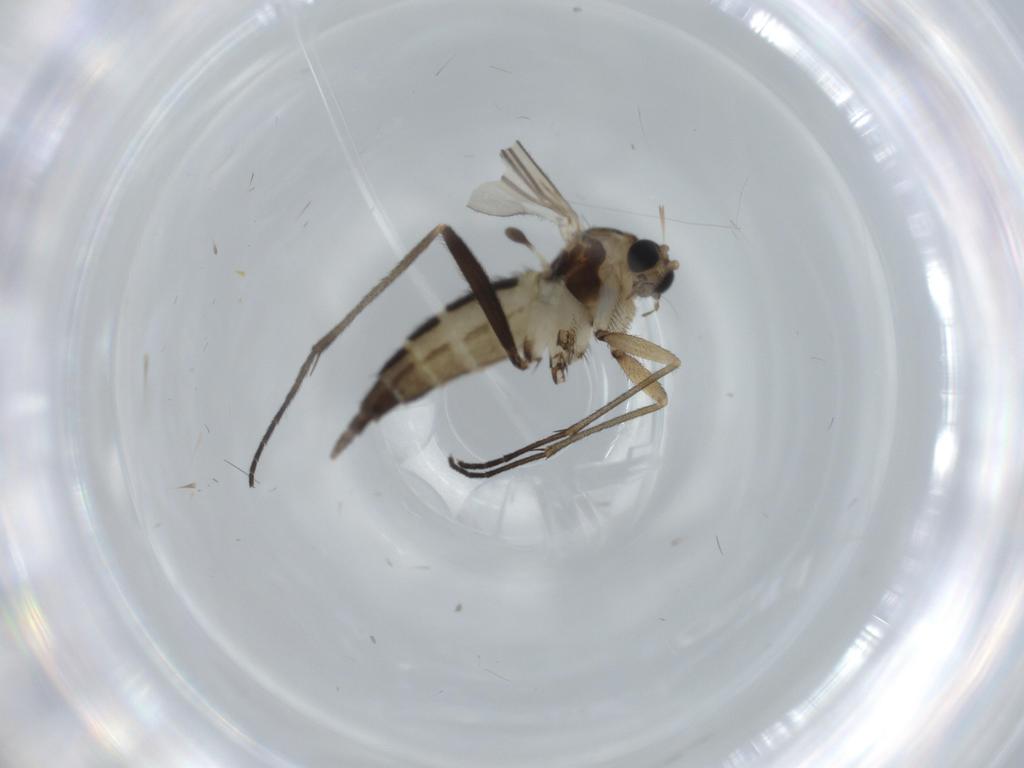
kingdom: Animalia
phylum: Arthropoda
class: Insecta
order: Diptera
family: Sciaridae
